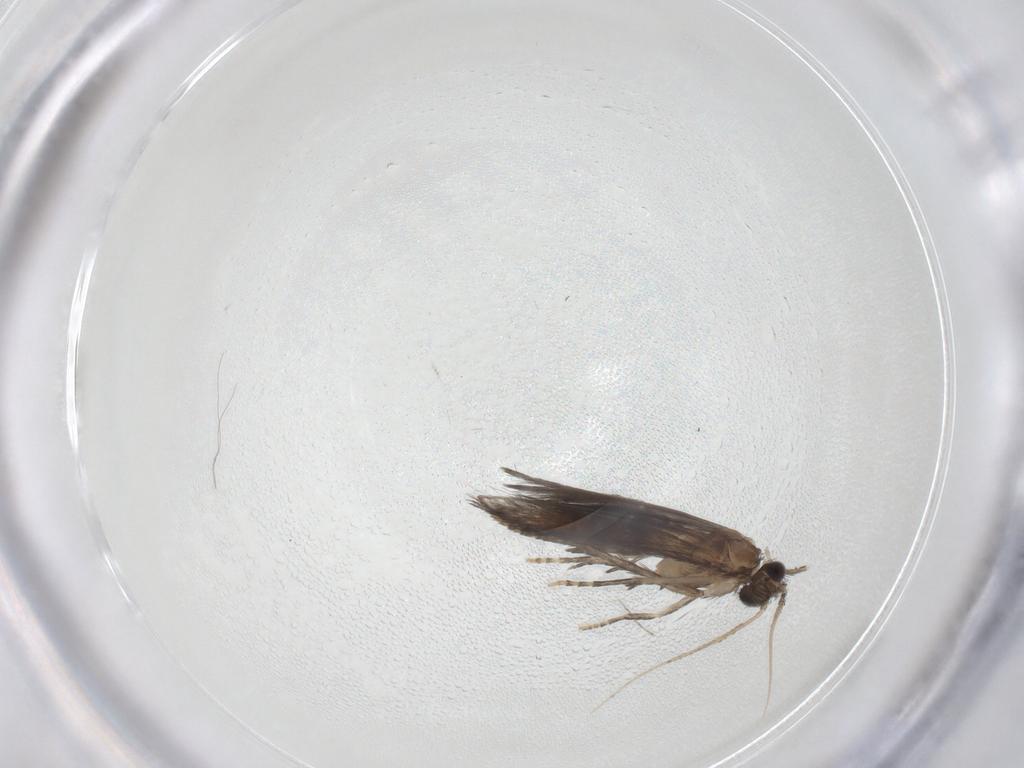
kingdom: Animalia
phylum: Arthropoda
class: Insecta
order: Trichoptera
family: Hydroptilidae
